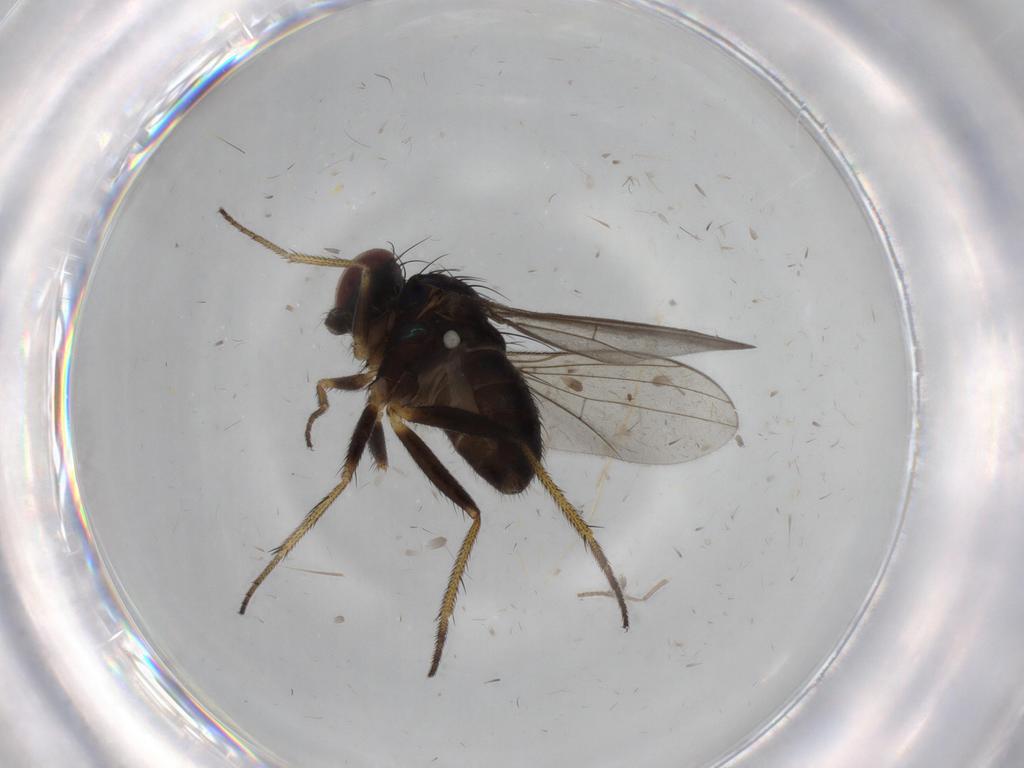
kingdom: Animalia
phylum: Arthropoda
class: Insecta
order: Diptera
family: Dolichopodidae
